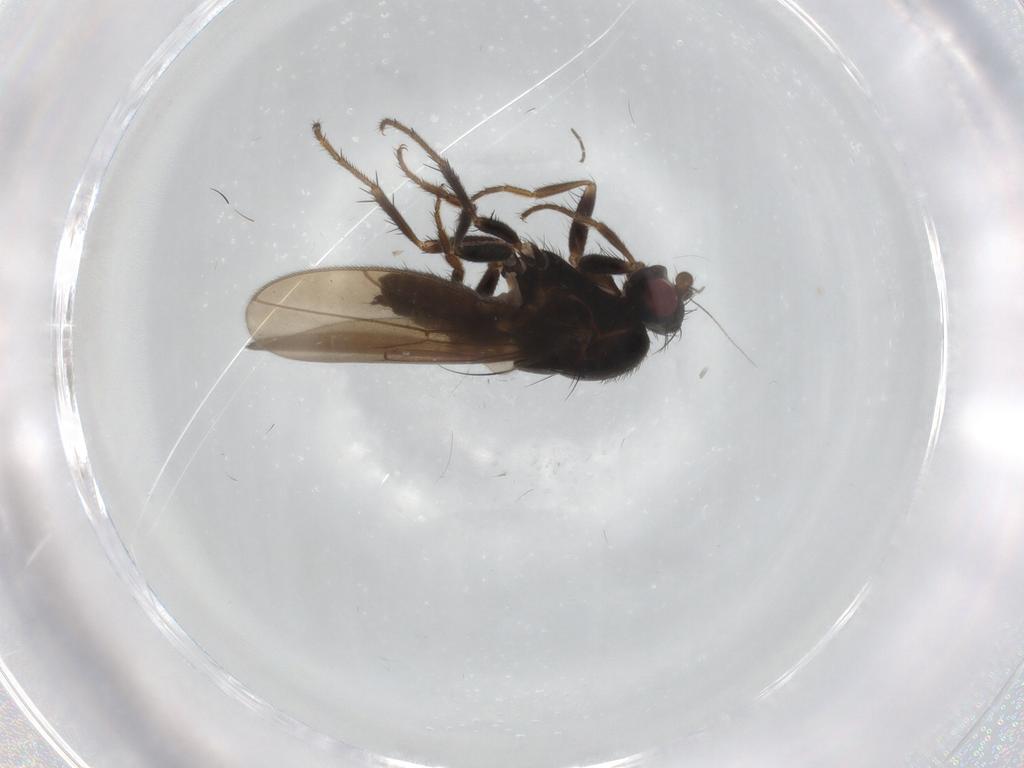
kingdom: Animalia
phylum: Arthropoda
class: Insecta
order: Diptera
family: Sphaeroceridae
